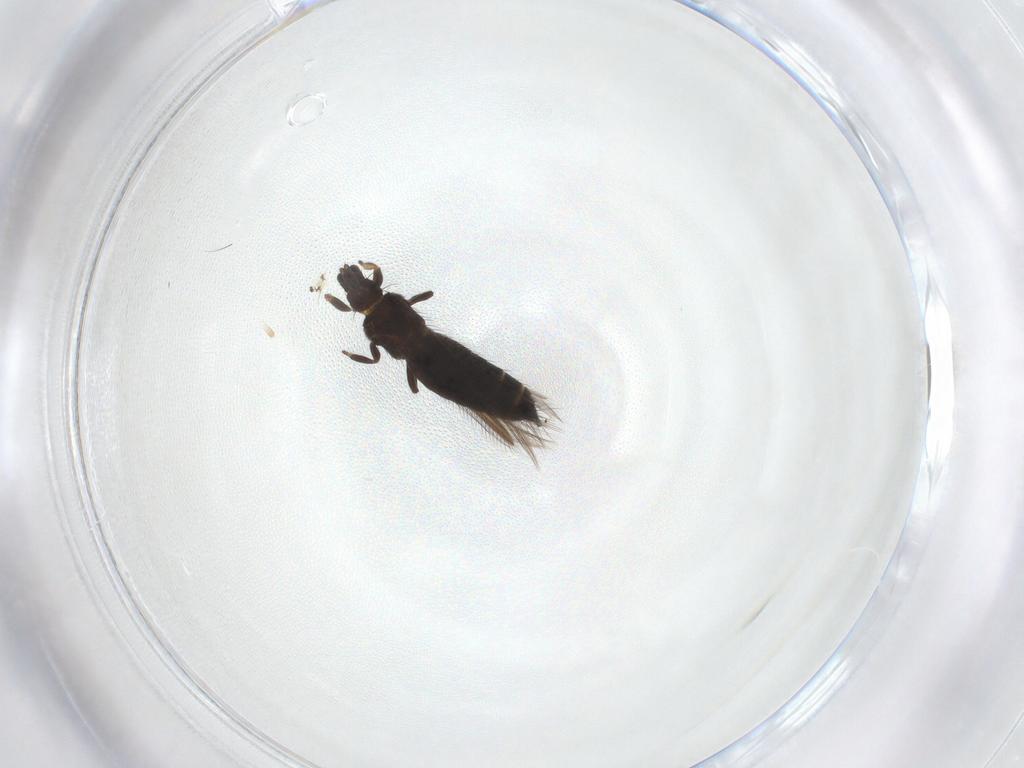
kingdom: Animalia
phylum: Arthropoda
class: Insecta
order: Thysanoptera
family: Thripidae
